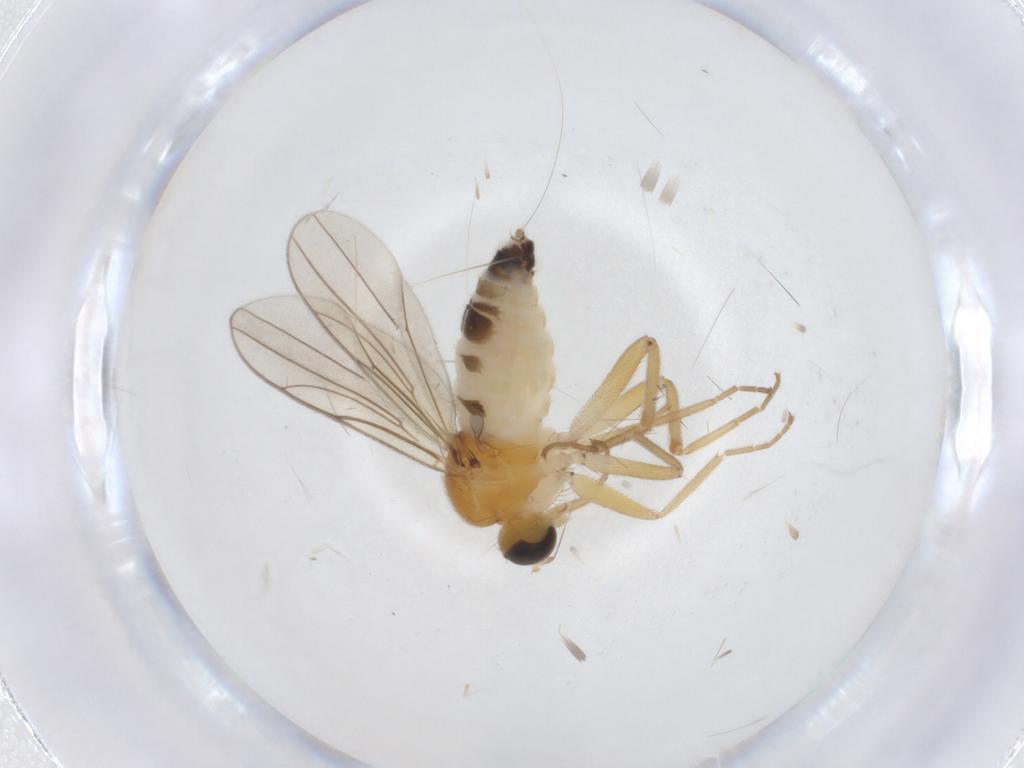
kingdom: Animalia
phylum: Arthropoda
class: Insecta
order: Diptera
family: Hybotidae
